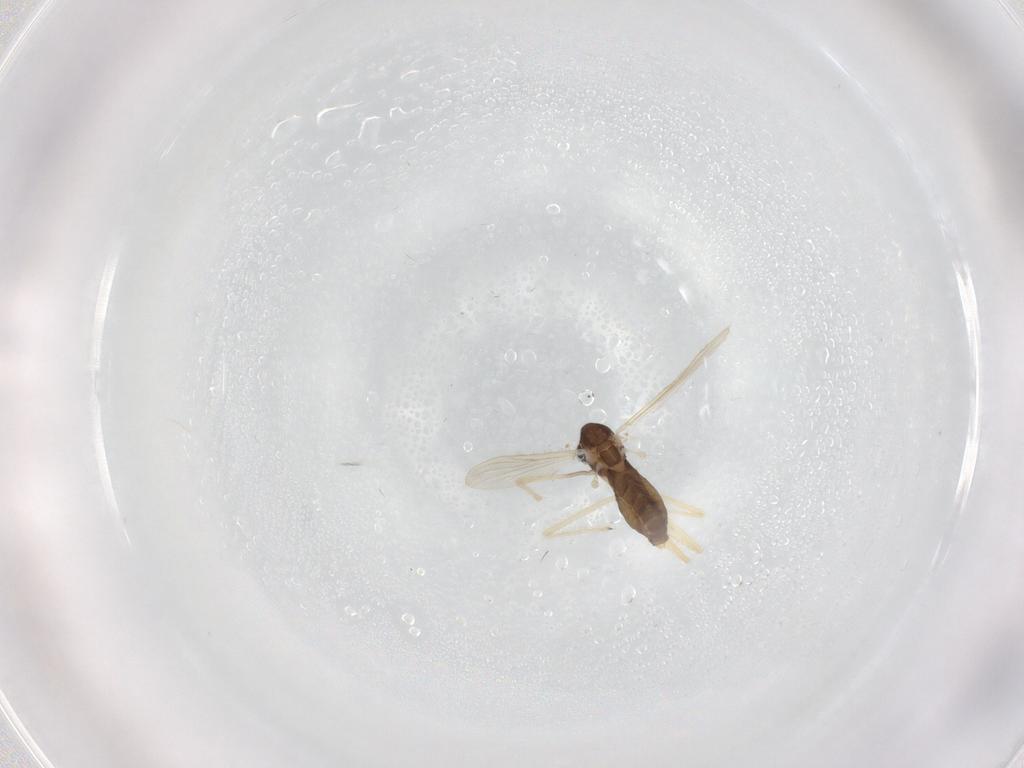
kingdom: Animalia
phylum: Arthropoda
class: Insecta
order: Diptera
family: Chironomidae
